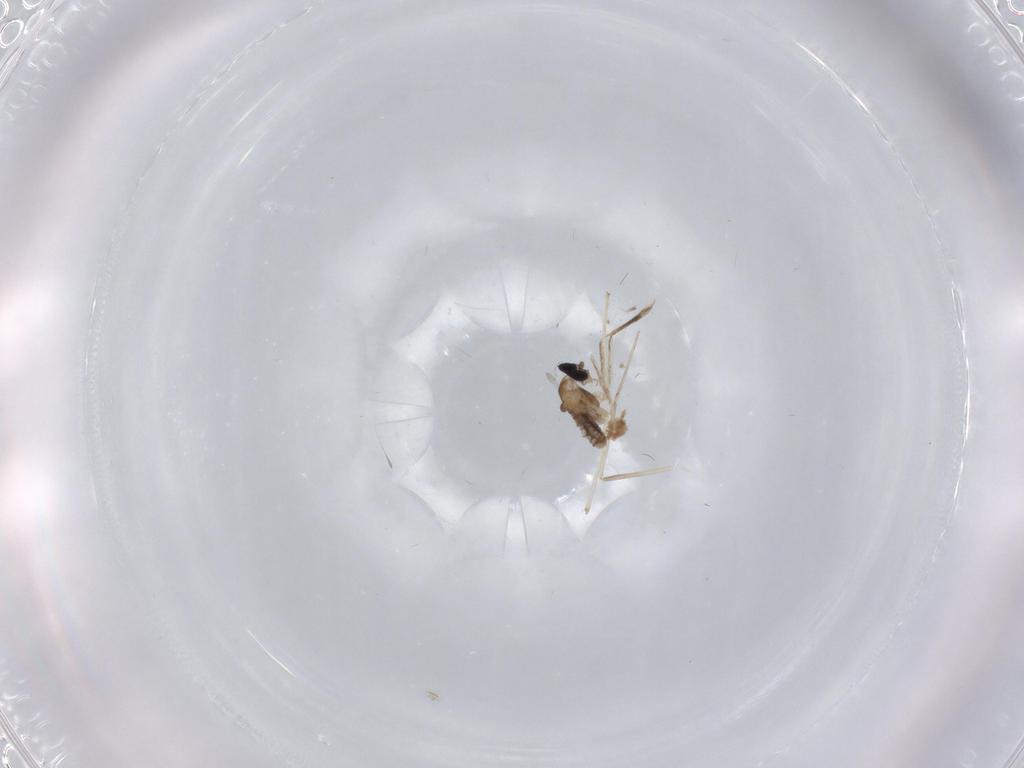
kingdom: Animalia
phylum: Arthropoda
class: Insecta
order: Diptera
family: Cecidomyiidae
